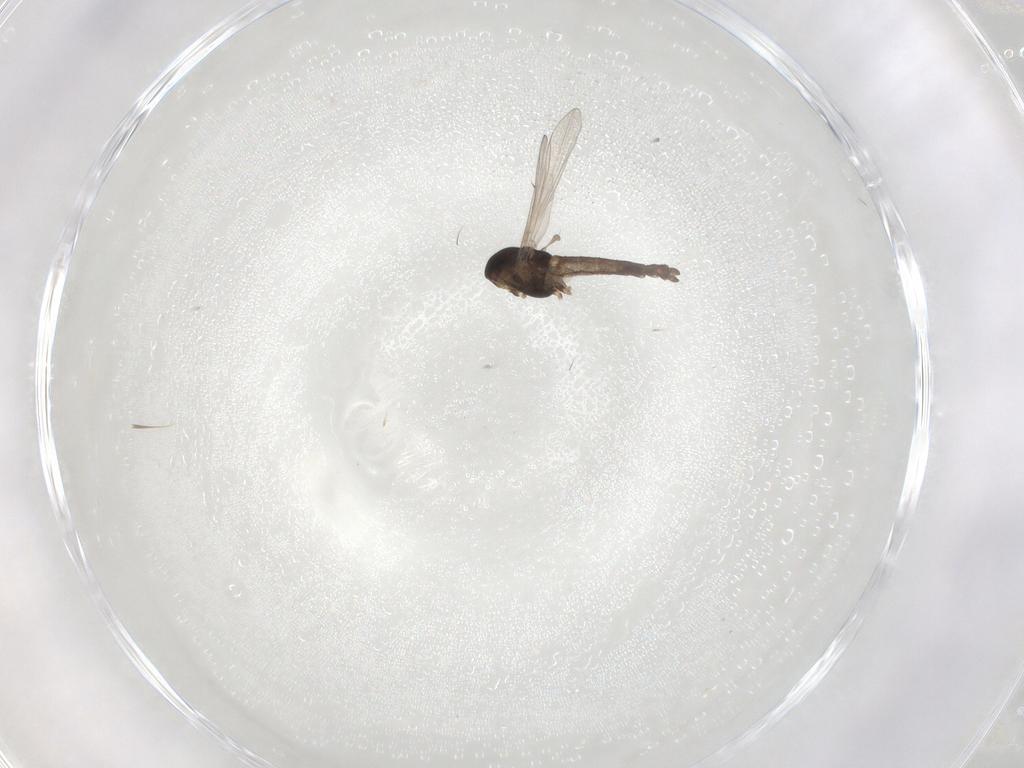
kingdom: Animalia
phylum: Arthropoda
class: Insecta
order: Diptera
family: Chironomidae
